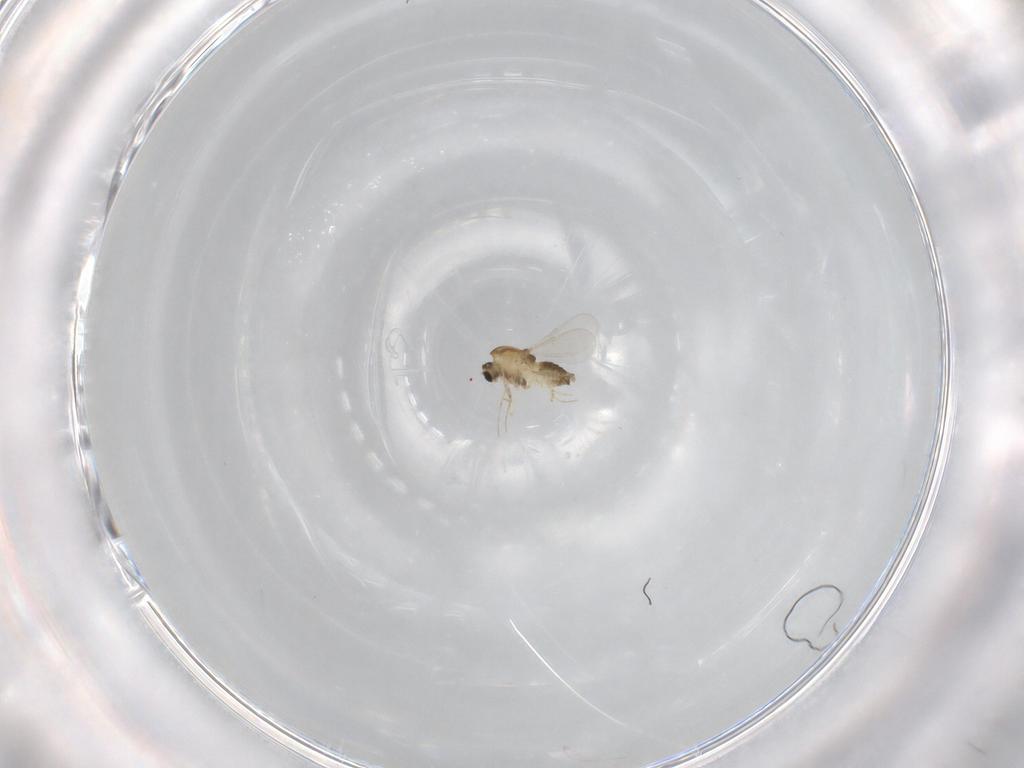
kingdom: Animalia
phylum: Arthropoda
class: Insecta
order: Diptera
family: Chironomidae
